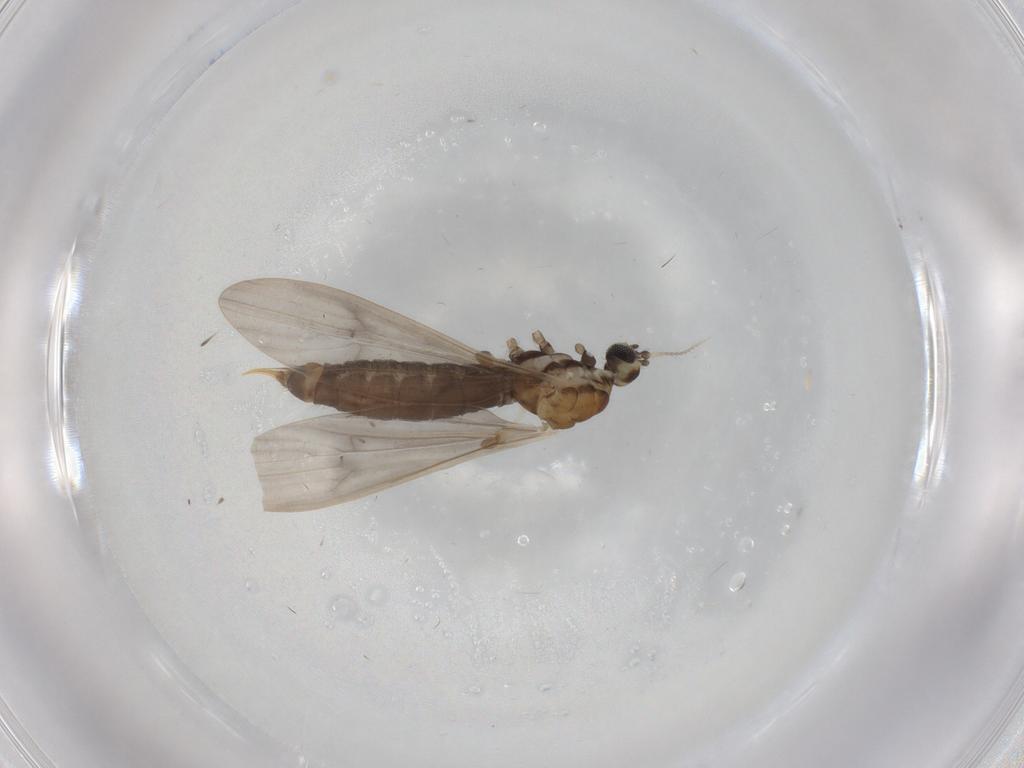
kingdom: Animalia
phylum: Arthropoda
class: Insecta
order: Diptera
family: Limoniidae
